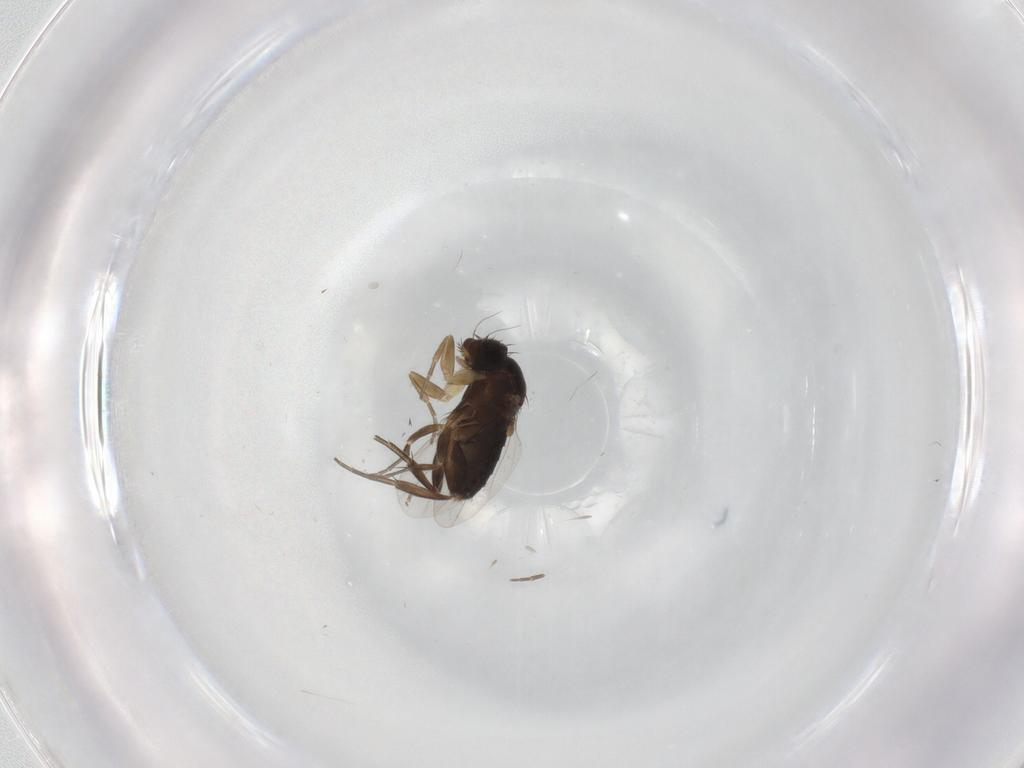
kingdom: Animalia
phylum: Arthropoda
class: Insecta
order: Diptera
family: Phoridae
